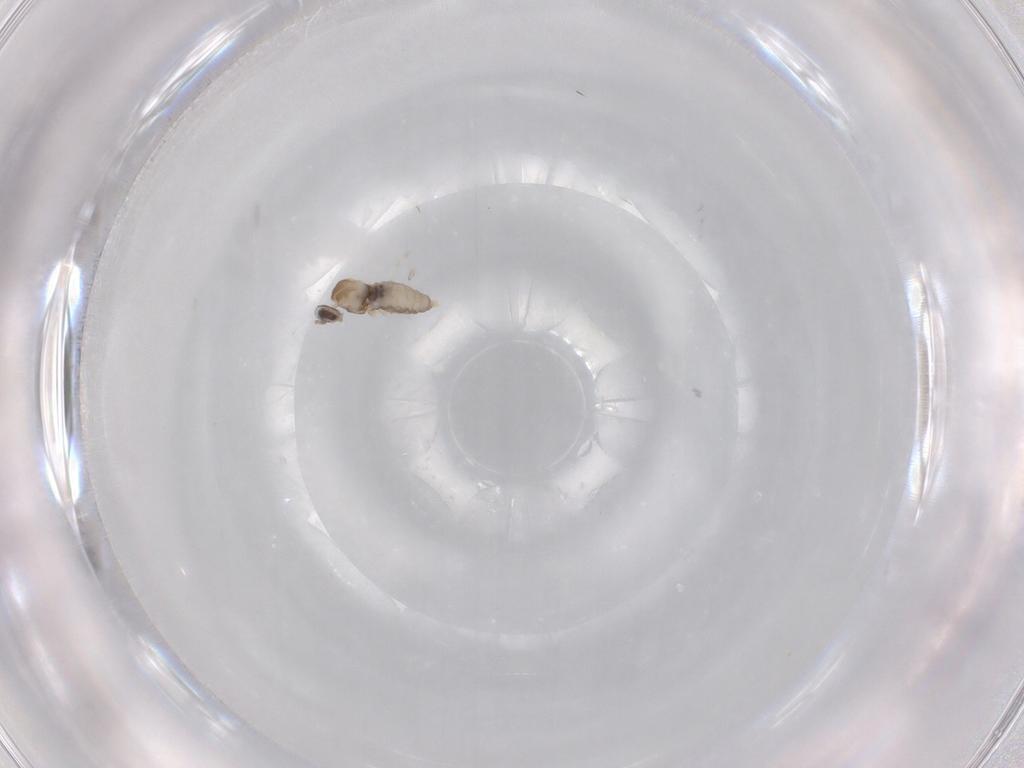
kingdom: Animalia
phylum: Arthropoda
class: Insecta
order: Diptera
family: Cecidomyiidae
